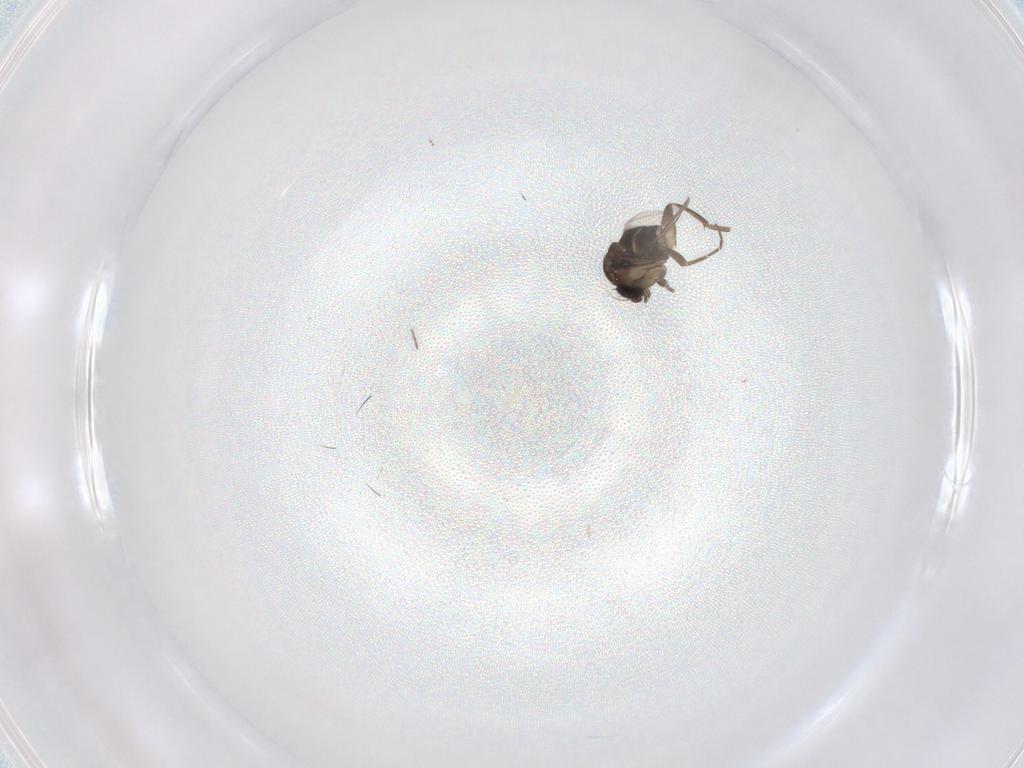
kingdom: Animalia
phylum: Arthropoda
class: Insecta
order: Diptera
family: Phoridae
